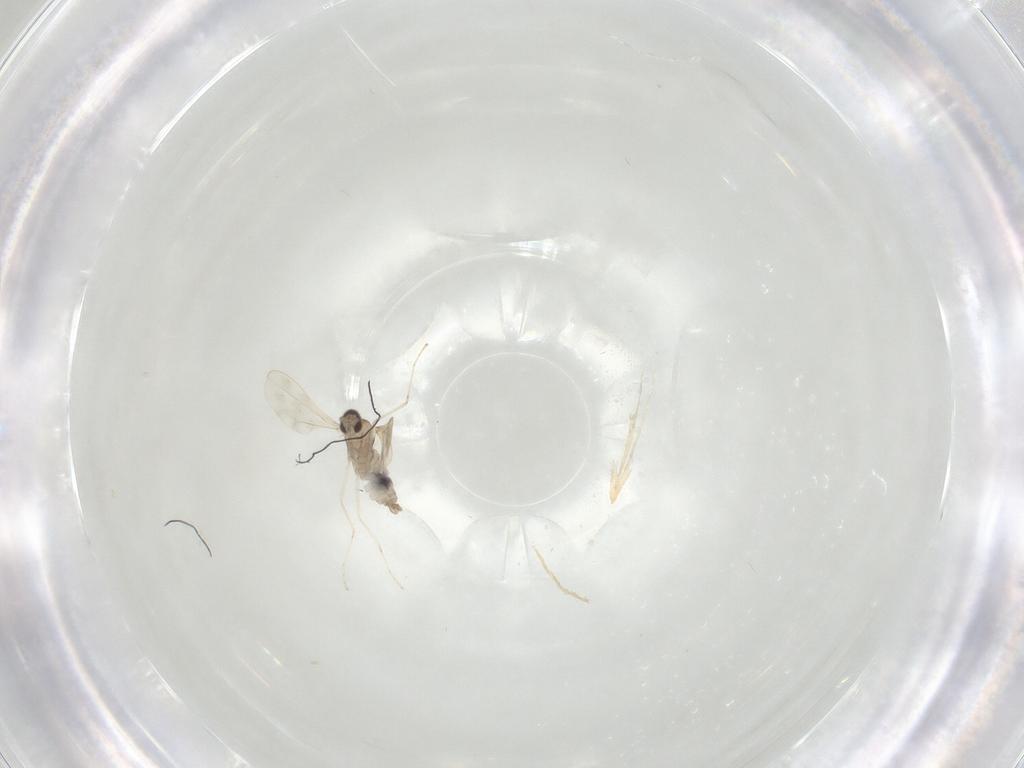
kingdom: Animalia
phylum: Arthropoda
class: Insecta
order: Diptera
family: Cecidomyiidae
